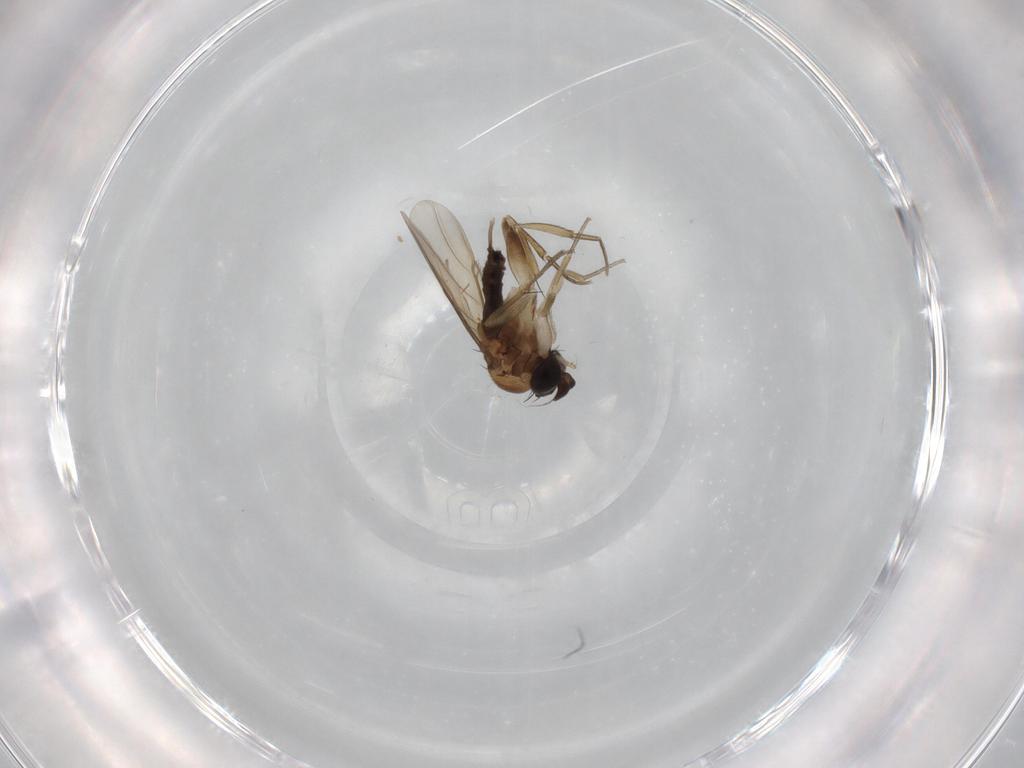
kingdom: Animalia
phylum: Arthropoda
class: Insecta
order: Diptera
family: Phoridae
